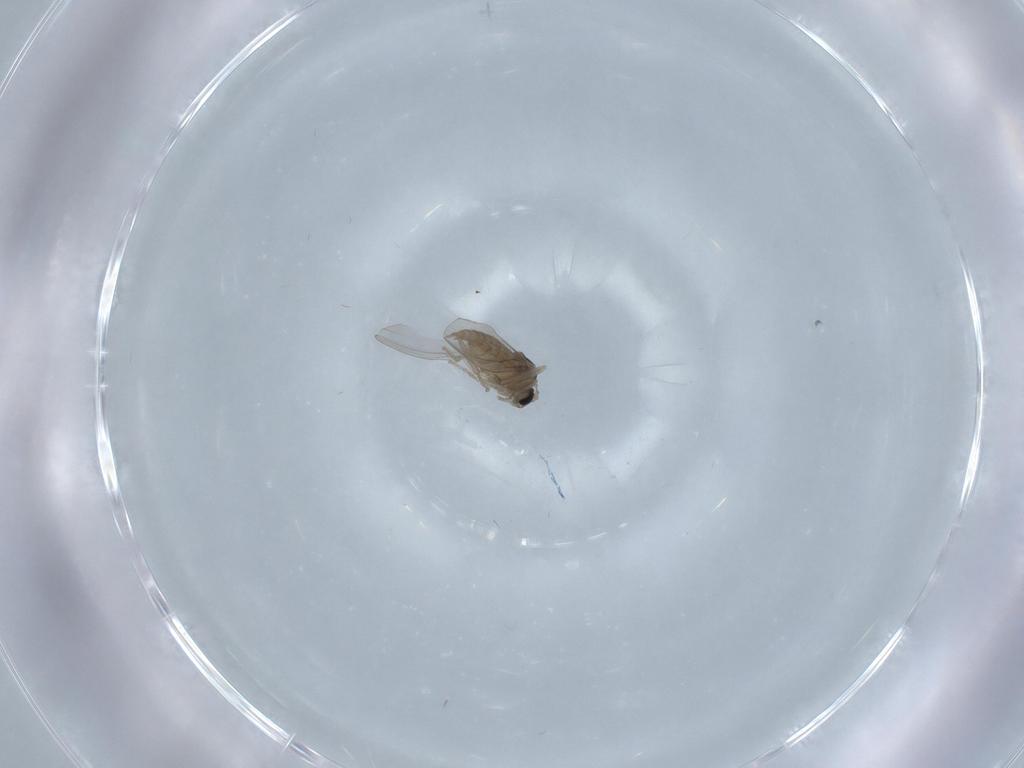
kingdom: Animalia
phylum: Arthropoda
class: Insecta
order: Diptera
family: Cecidomyiidae
